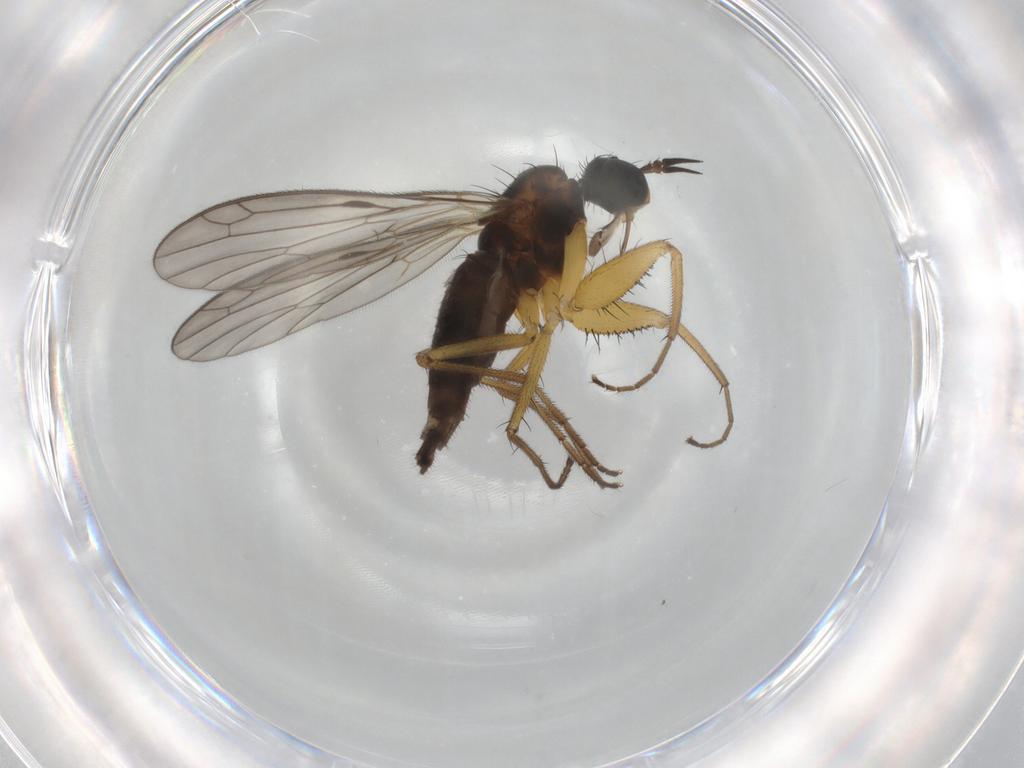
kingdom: Animalia
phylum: Arthropoda
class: Insecta
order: Diptera
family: Empididae
